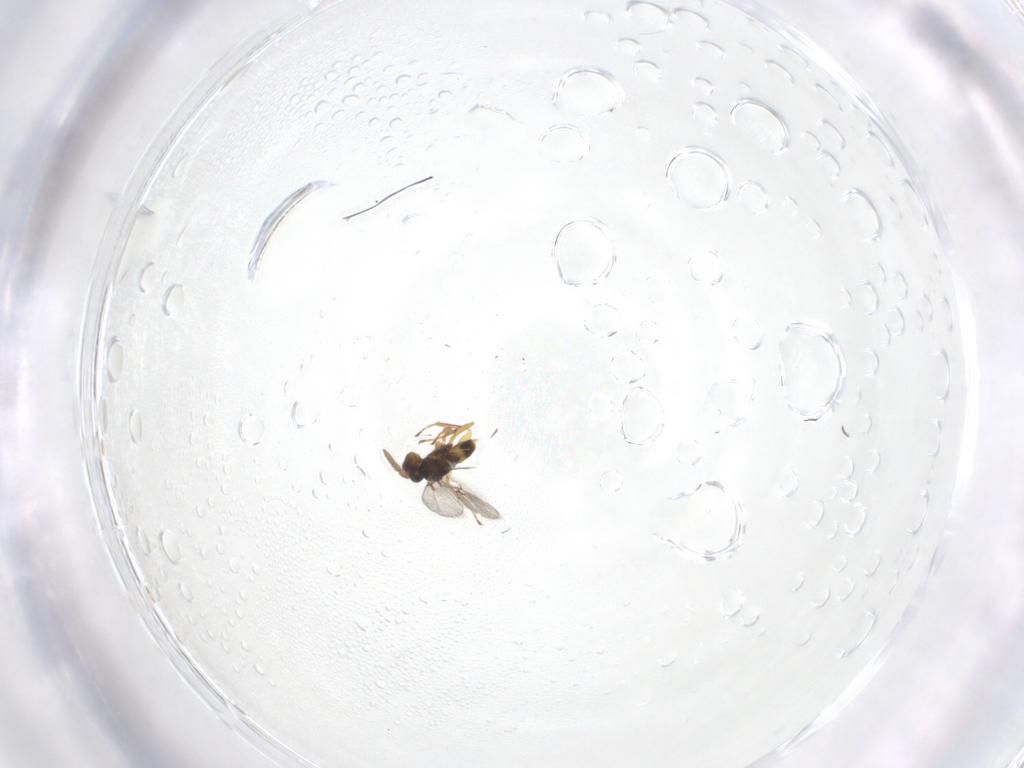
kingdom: Animalia
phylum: Arthropoda
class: Insecta
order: Hymenoptera
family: Eulophidae
